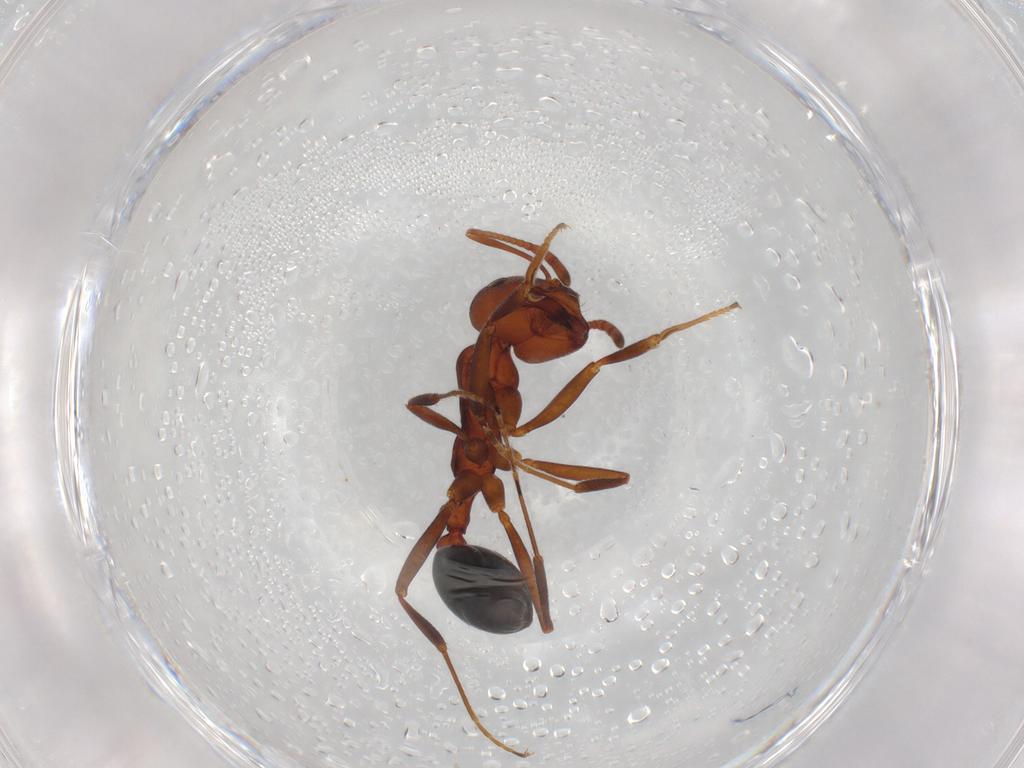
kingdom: Animalia
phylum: Arthropoda
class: Insecta
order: Hymenoptera
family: Formicidae
